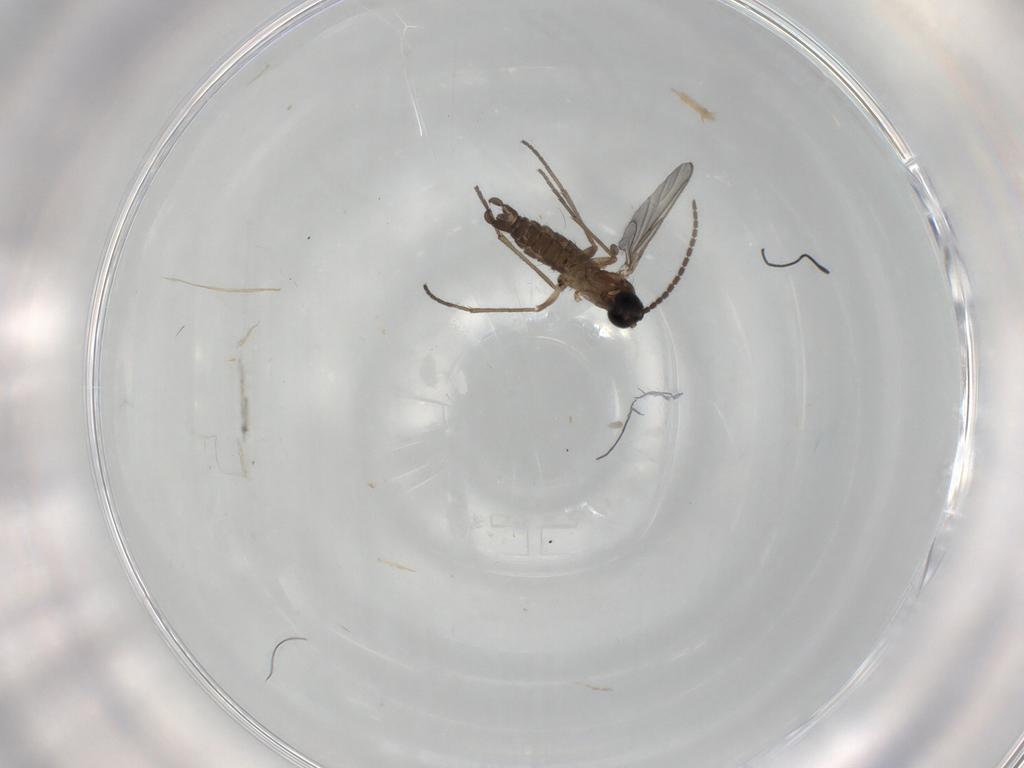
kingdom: Animalia
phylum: Arthropoda
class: Insecta
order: Diptera
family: Sciaridae
